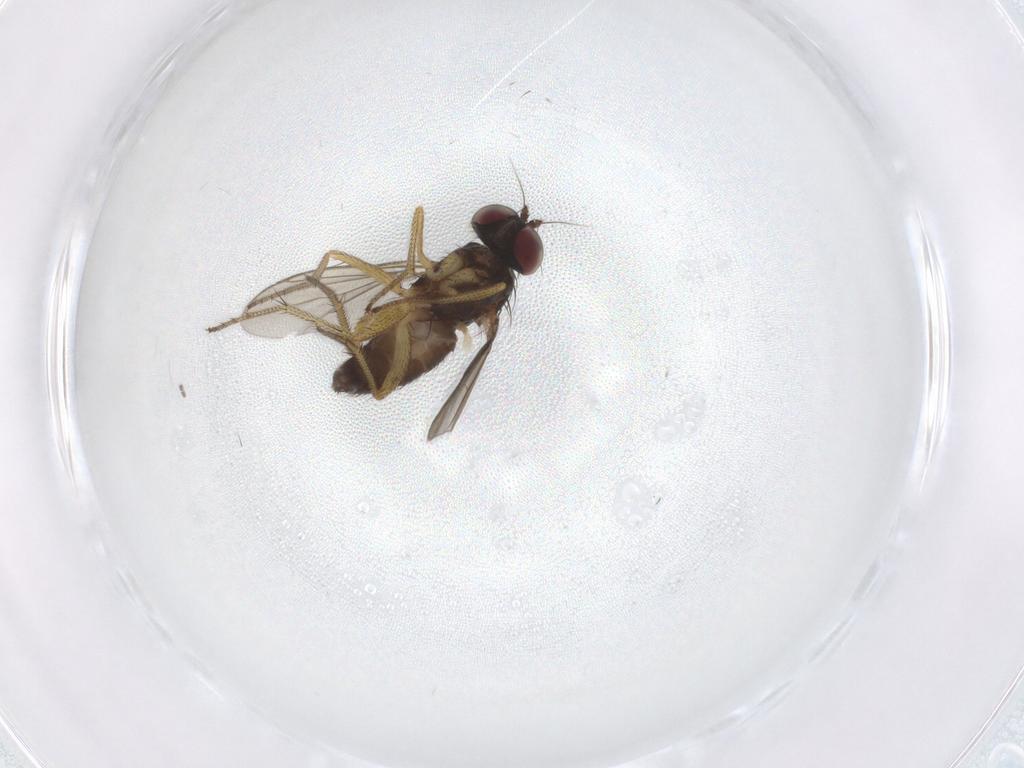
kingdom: Animalia
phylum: Arthropoda
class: Insecta
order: Diptera
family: Dolichopodidae
